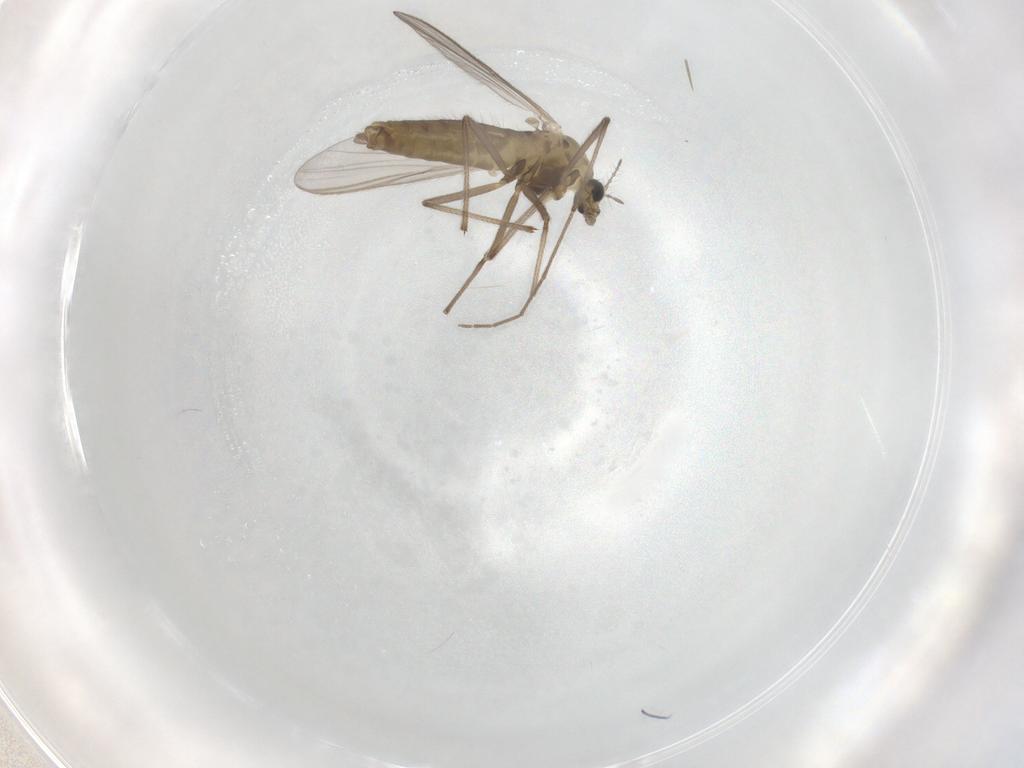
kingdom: Animalia
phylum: Arthropoda
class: Insecta
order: Diptera
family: Chironomidae
